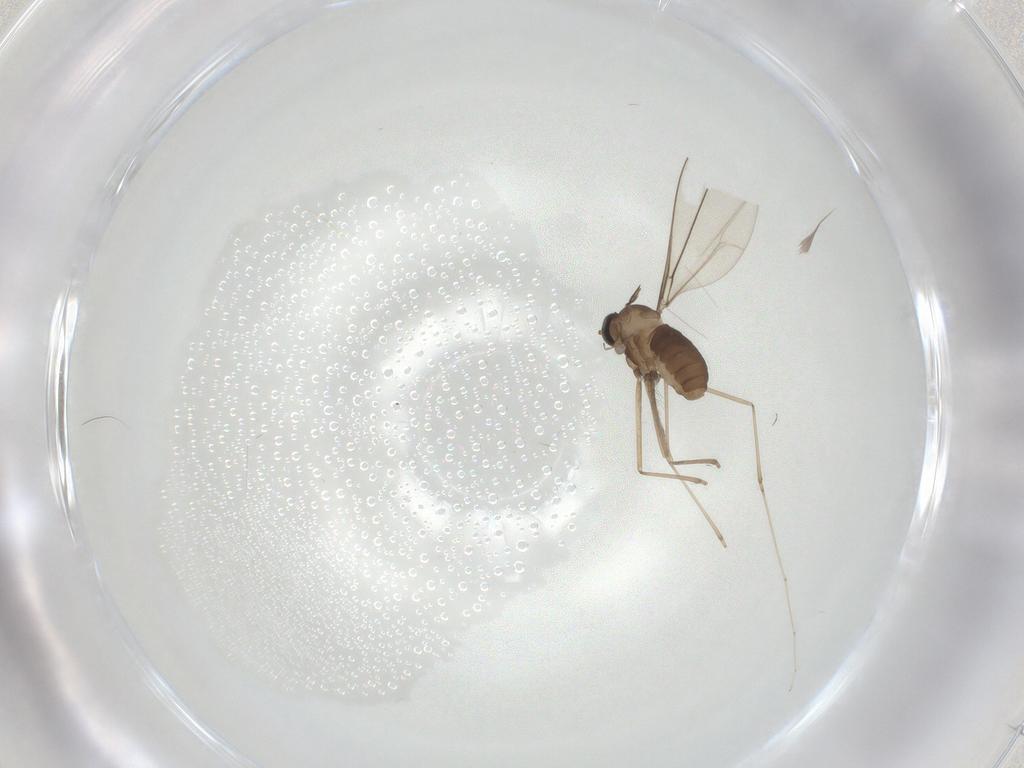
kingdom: Animalia
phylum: Arthropoda
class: Insecta
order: Diptera
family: Cecidomyiidae
